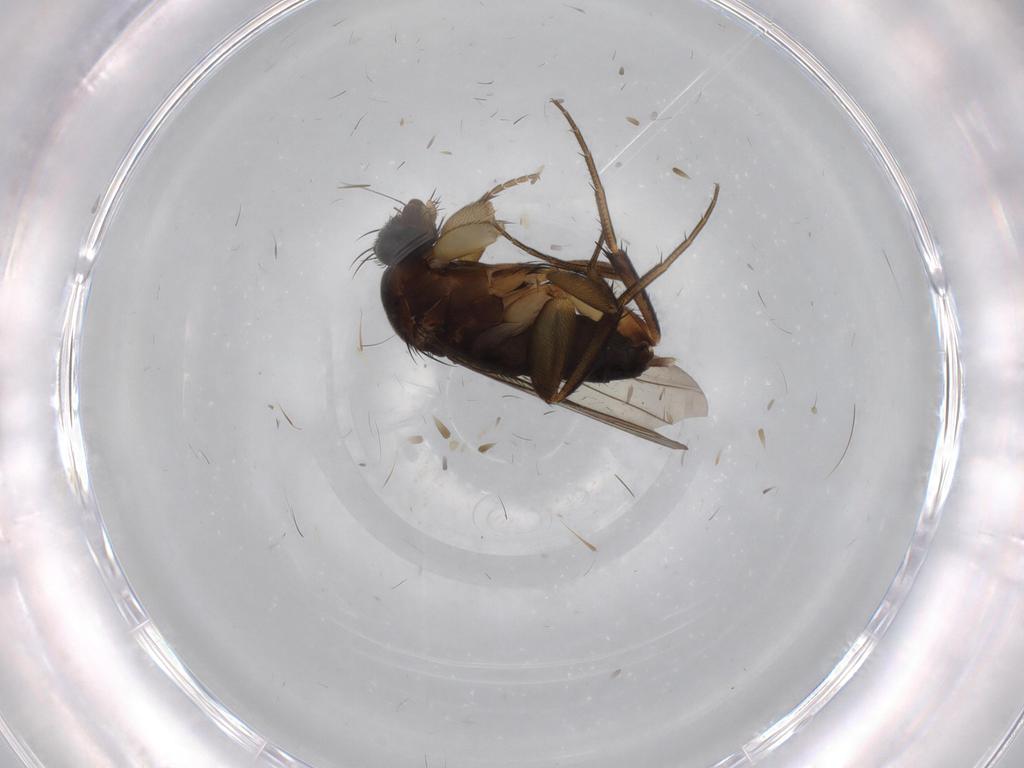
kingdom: Animalia
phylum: Arthropoda
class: Insecta
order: Diptera
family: Phoridae
